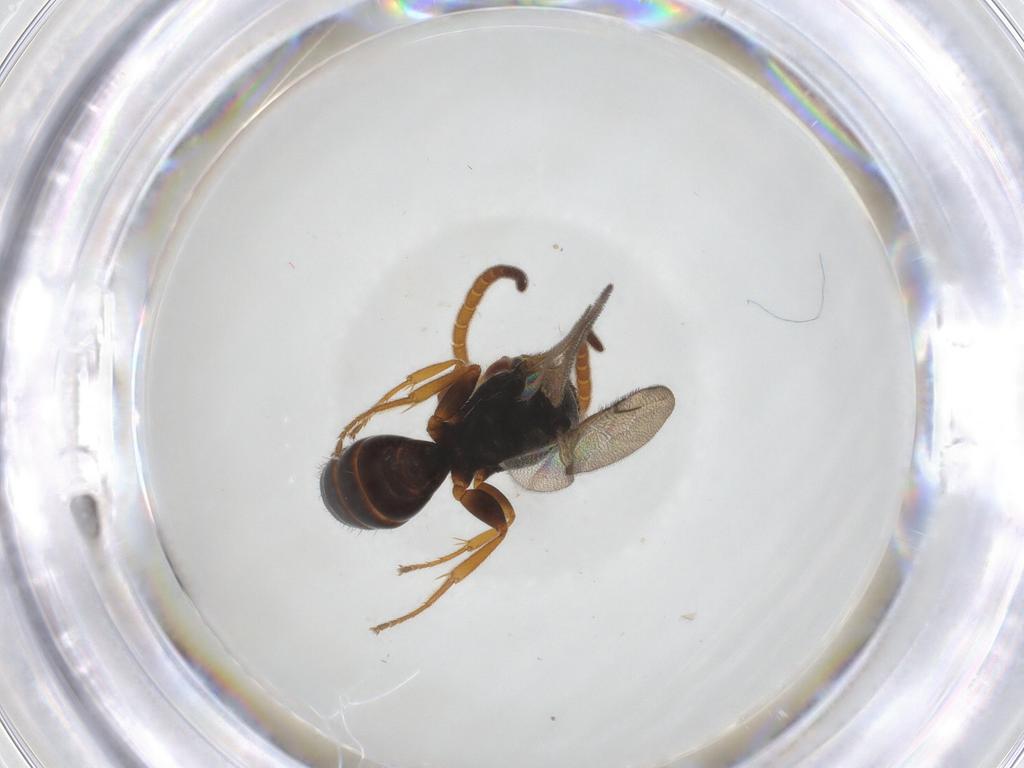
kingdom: Animalia
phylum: Arthropoda
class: Insecta
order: Hymenoptera
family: Bethylidae
